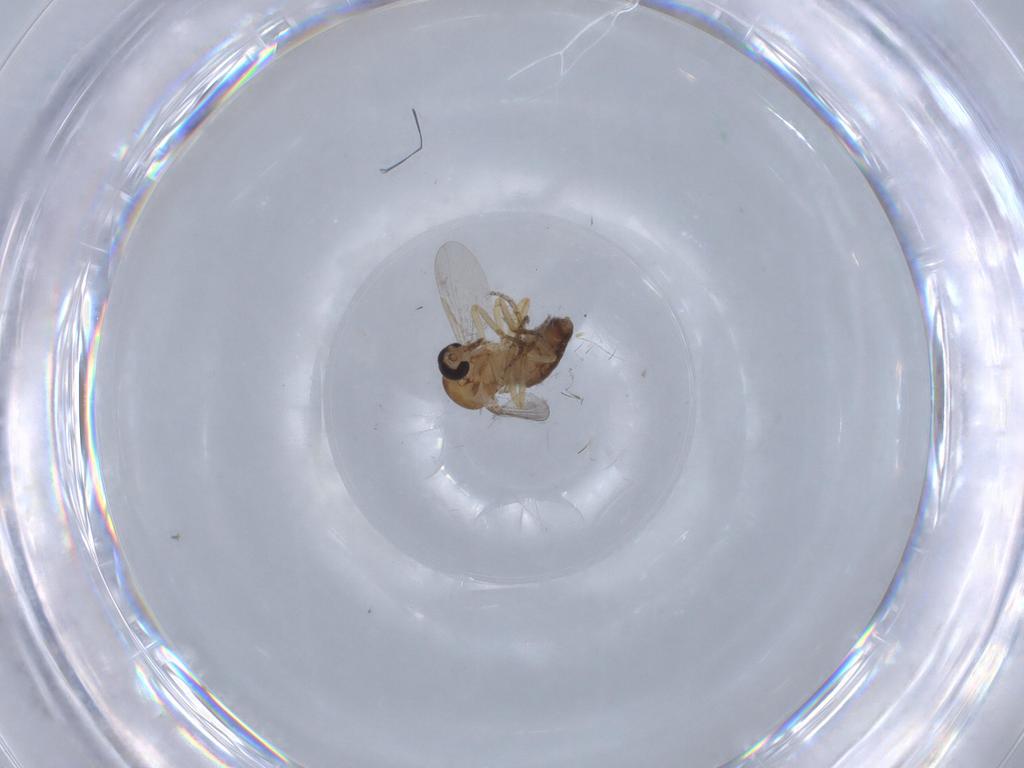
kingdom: Animalia
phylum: Arthropoda
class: Insecta
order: Diptera
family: Ceratopogonidae
